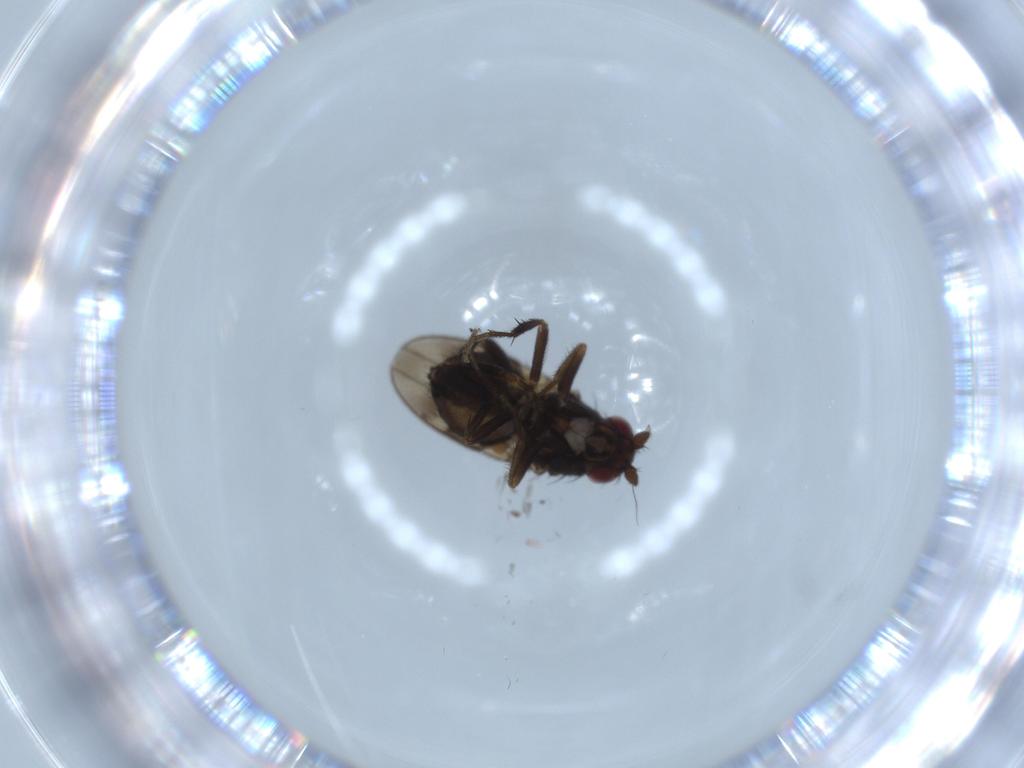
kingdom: Animalia
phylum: Arthropoda
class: Insecta
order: Diptera
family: Sphaeroceridae
